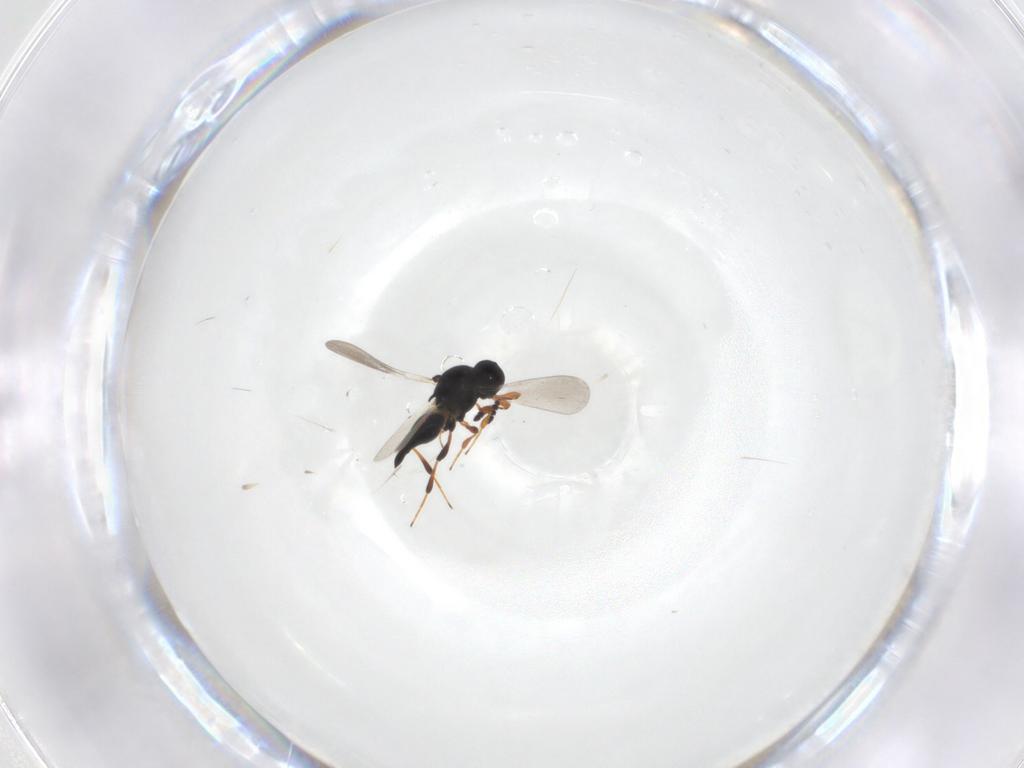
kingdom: Animalia
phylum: Arthropoda
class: Insecta
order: Hymenoptera
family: Platygastridae
